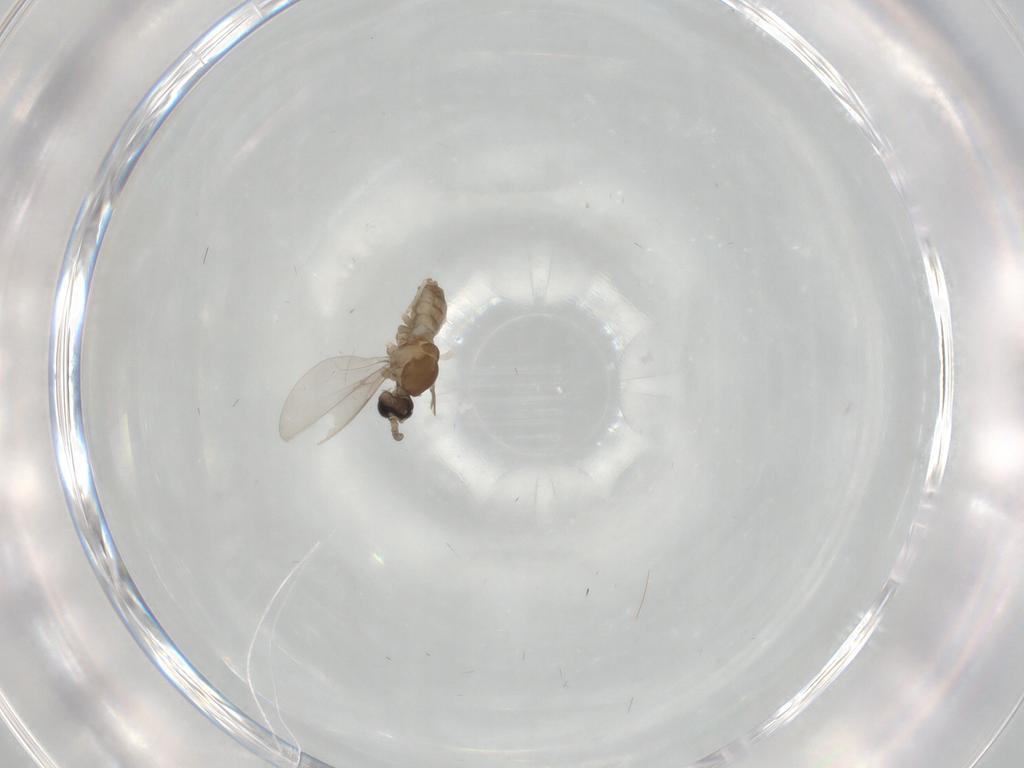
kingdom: Animalia
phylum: Arthropoda
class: Insecta
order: Diptera
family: Cecidomyiidae
